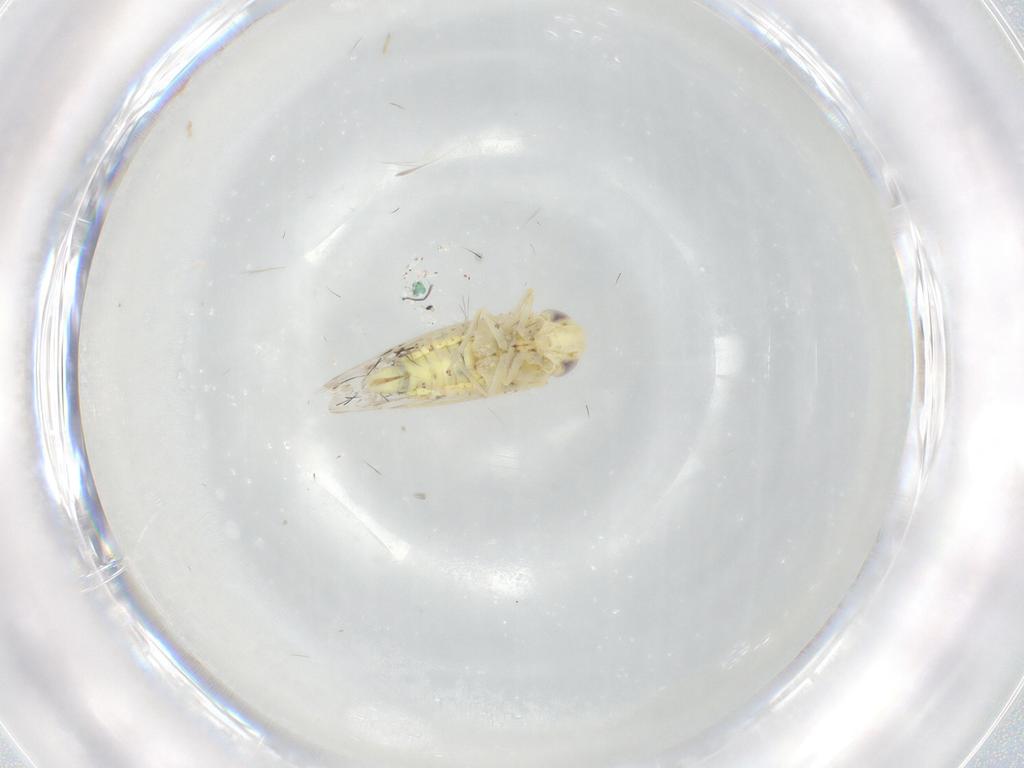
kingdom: Animalia
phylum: Arthropoda
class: Insecta
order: Hemiptera
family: Cicadellidae
